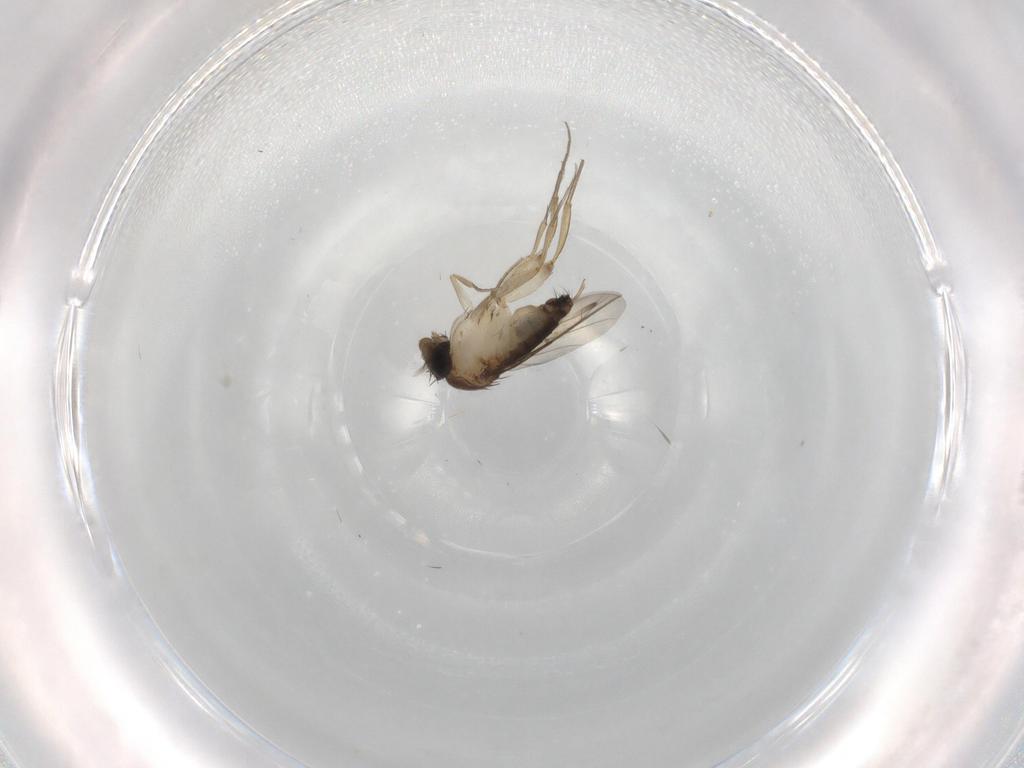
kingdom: Animalia
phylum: Arthropoda
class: Insecta
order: Diptera
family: Phoridae
